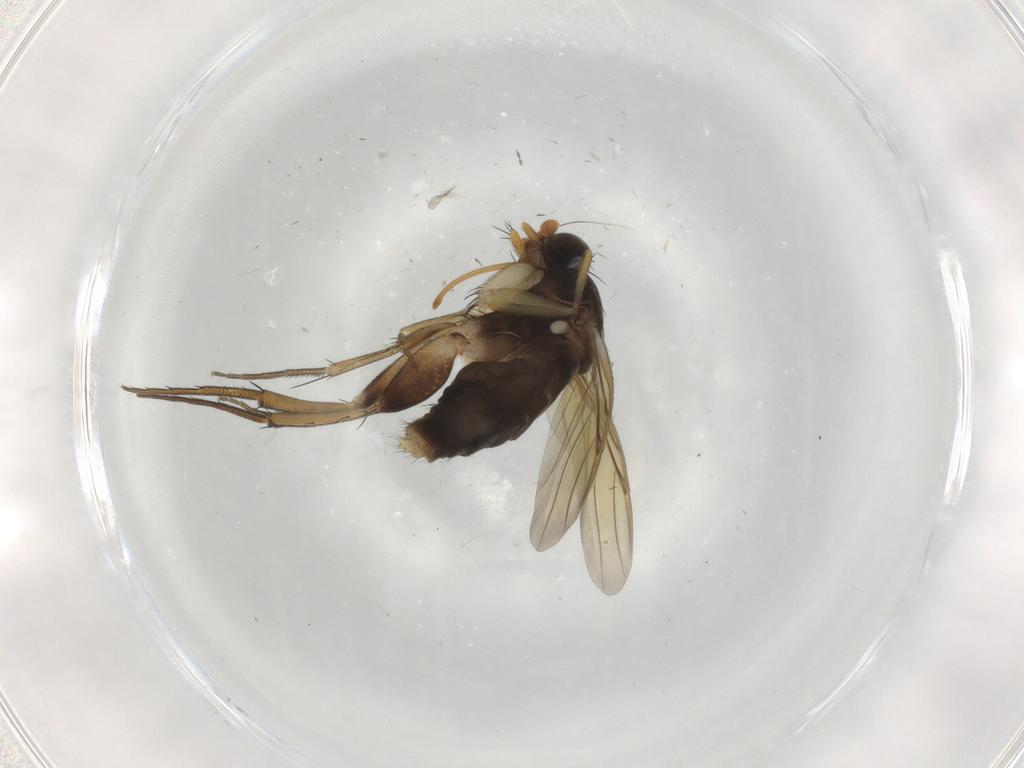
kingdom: Animalia
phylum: Arthropoda
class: Insecta
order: Diptera
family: Phoridae
